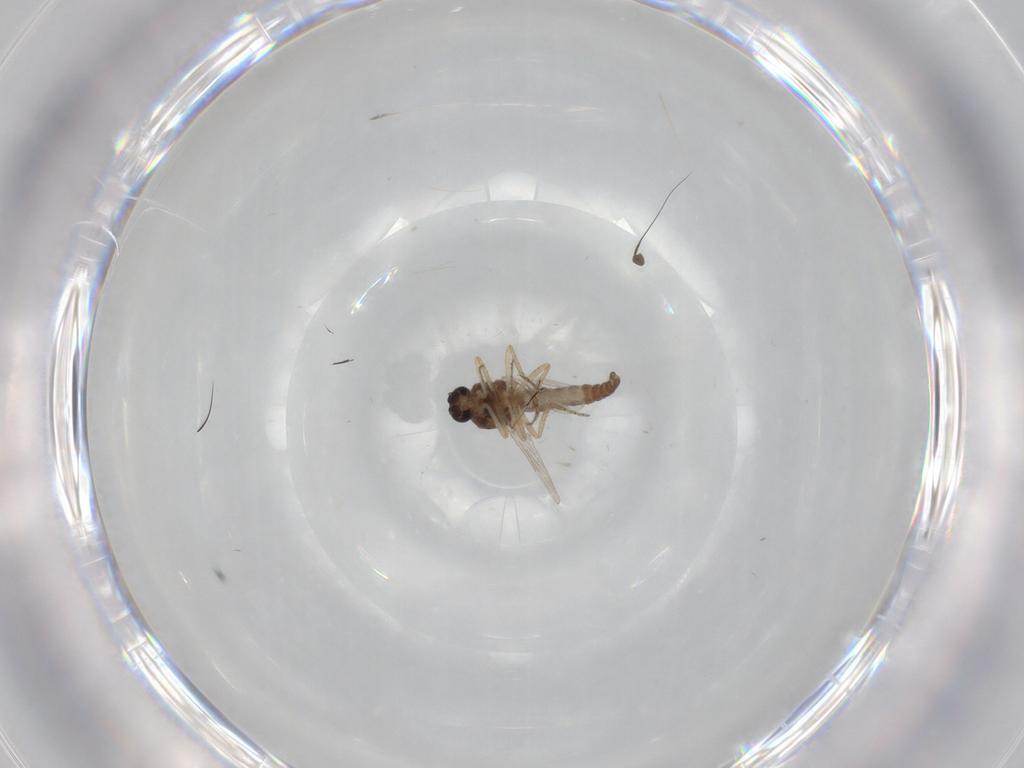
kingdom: Animalia
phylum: Arthropoda
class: Insecta
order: Diptera
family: Ceratopogonidae
